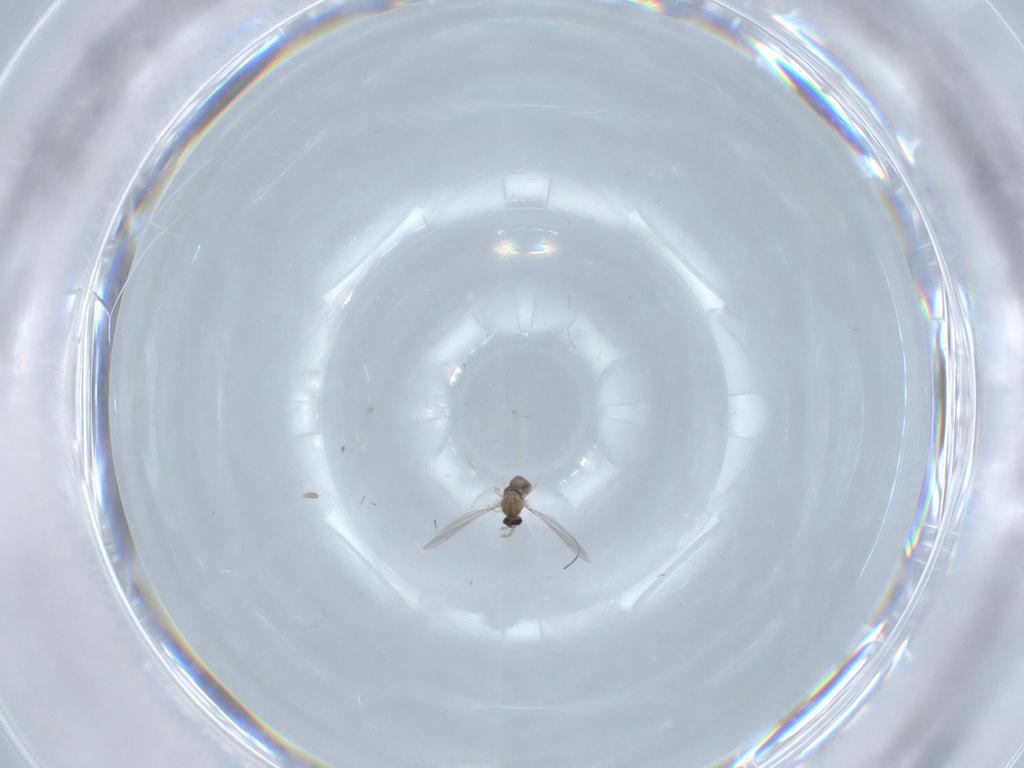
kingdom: Animalia
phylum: Arthropoda
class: Insecta
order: Diptera
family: Cecidomyiidae
